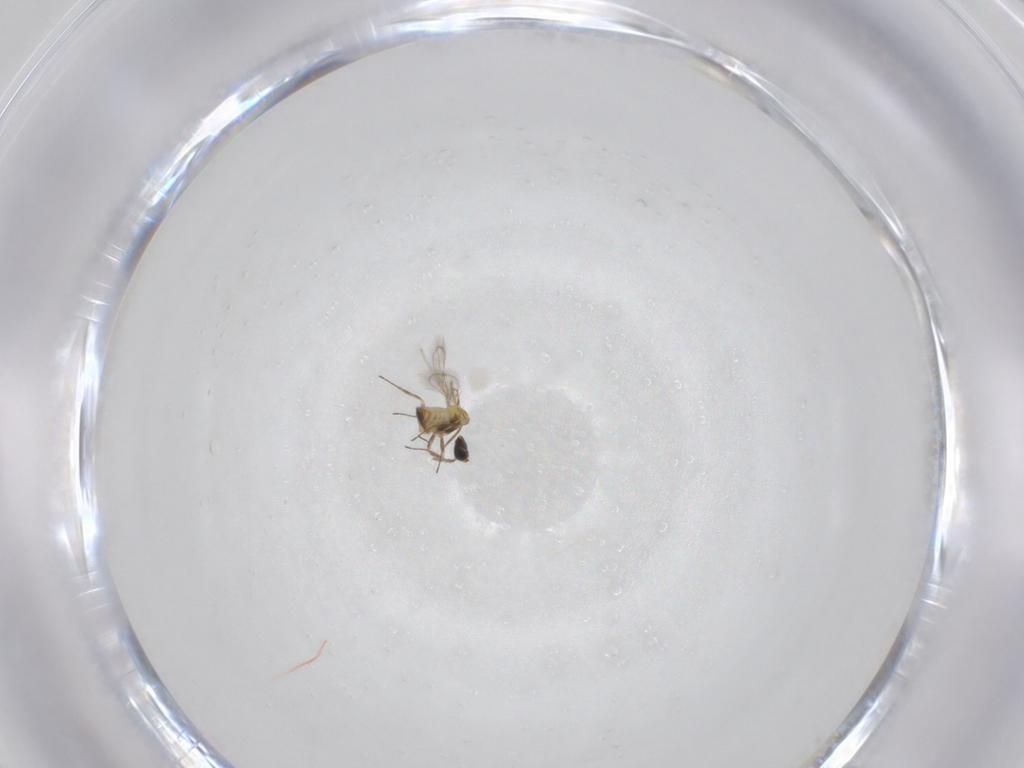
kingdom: Animalia
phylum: Arthropoda
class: Insecta
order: Hymenoptera
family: Trichogrammatidae
